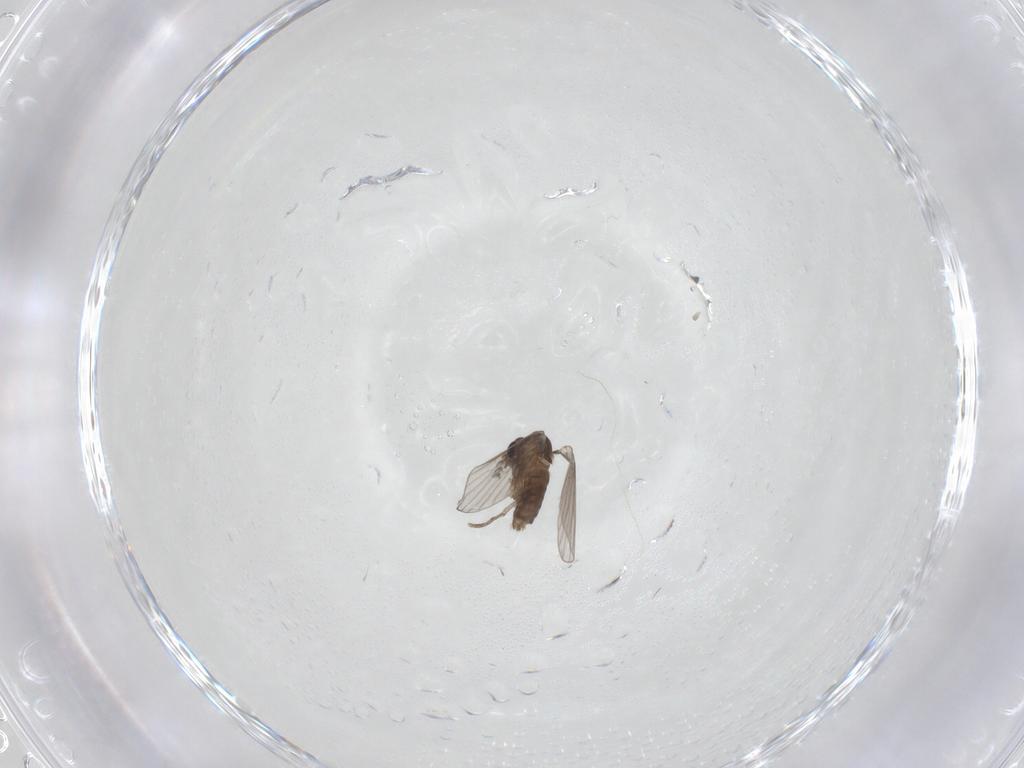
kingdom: Animalia
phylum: Arthropoda
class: Insecta
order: Diptera
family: Psychodidae
